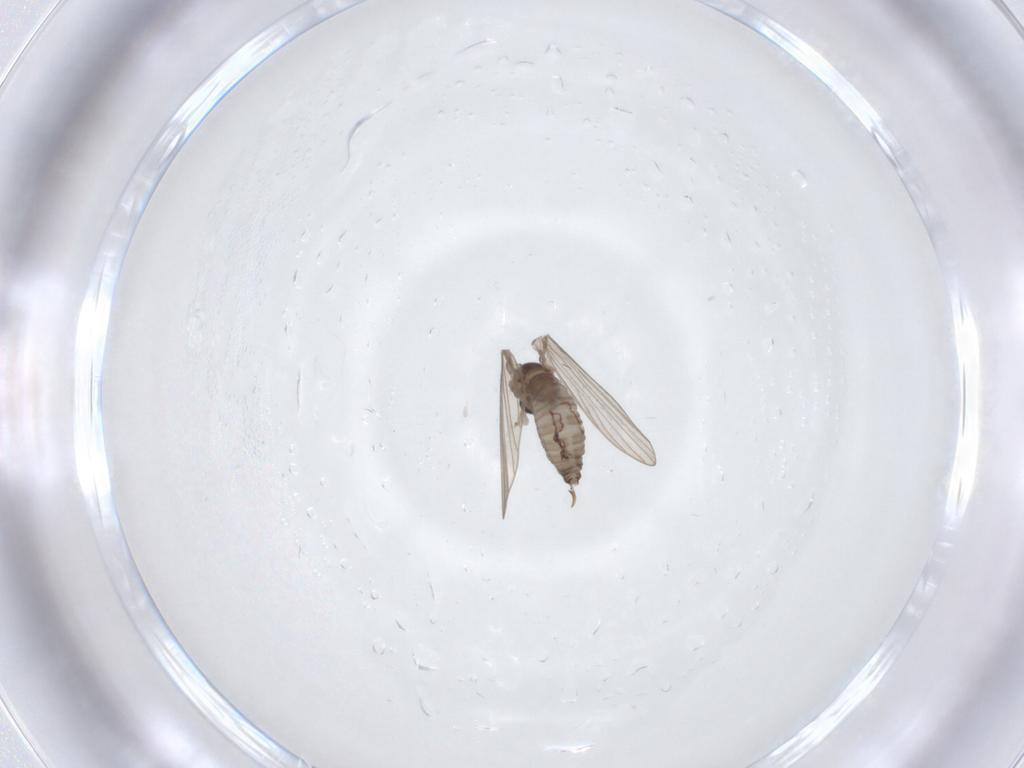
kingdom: Animalia
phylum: Arthropoda
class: Insecta
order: Diptera
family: Psychodidae
